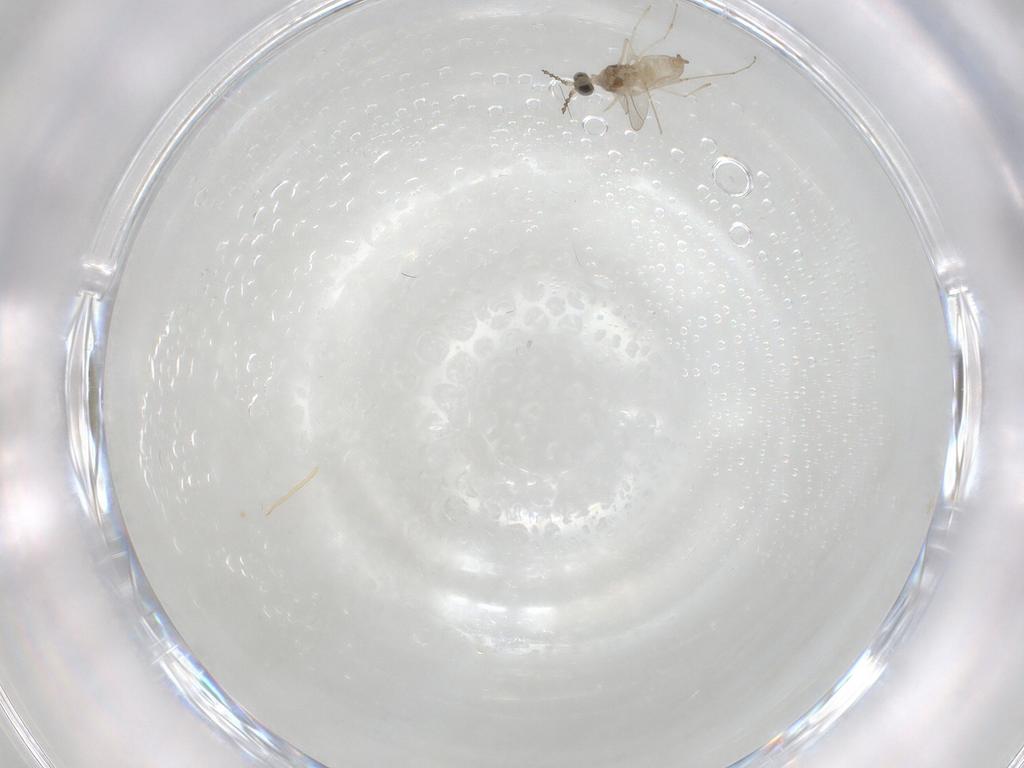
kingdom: Animalia
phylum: Arthropoda
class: Insecta
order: Diptera
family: Cecidomyiidae
